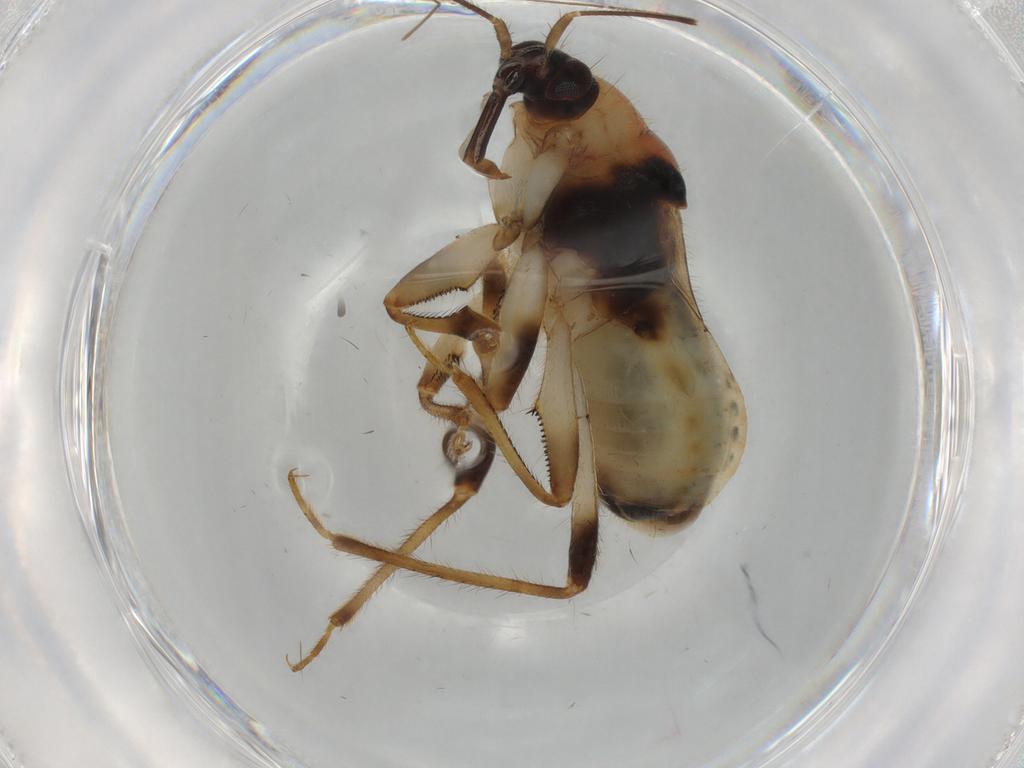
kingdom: Animalia
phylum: Arthropoda
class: Insecta
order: Hemiptera
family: Nabidae
